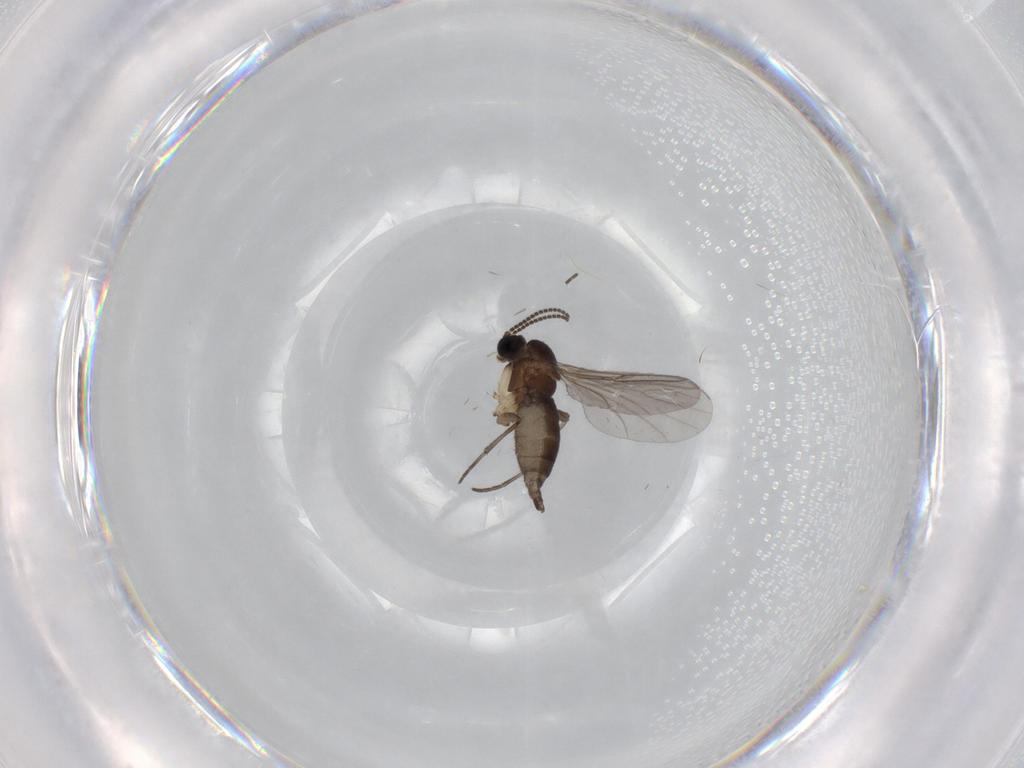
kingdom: Animalia
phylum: Arthropoda
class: Insecta
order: Diptera
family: Sciaridae
